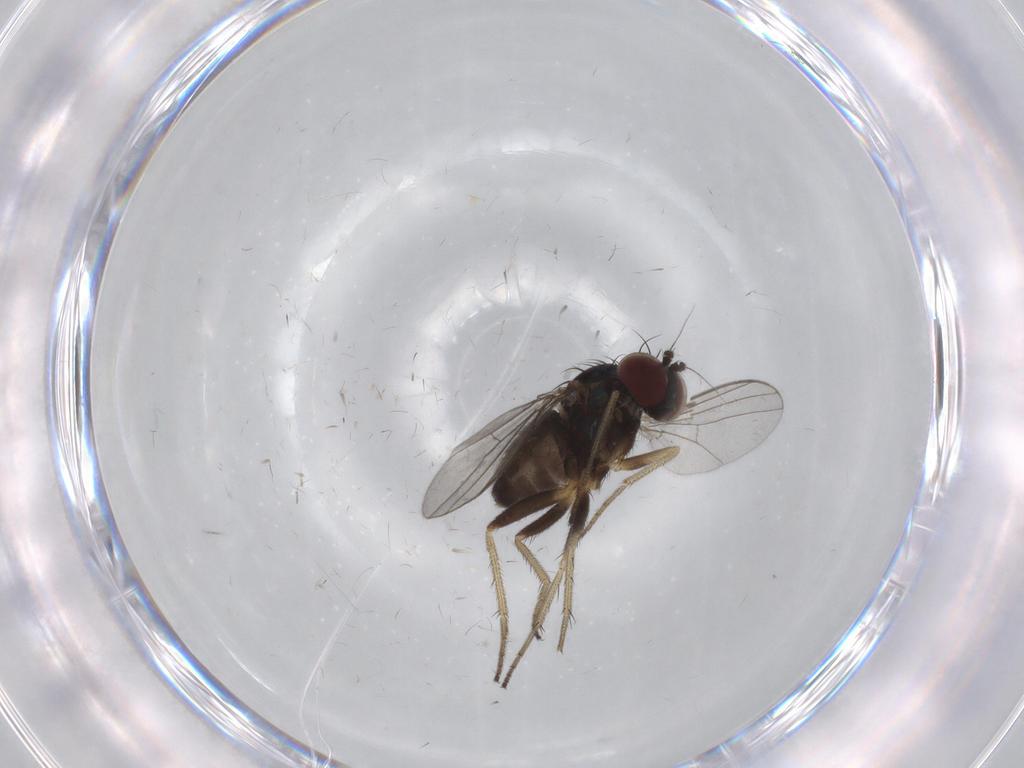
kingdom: Animalia
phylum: Arthropoda
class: Insecta
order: Diptera
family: Dolichopodidae
